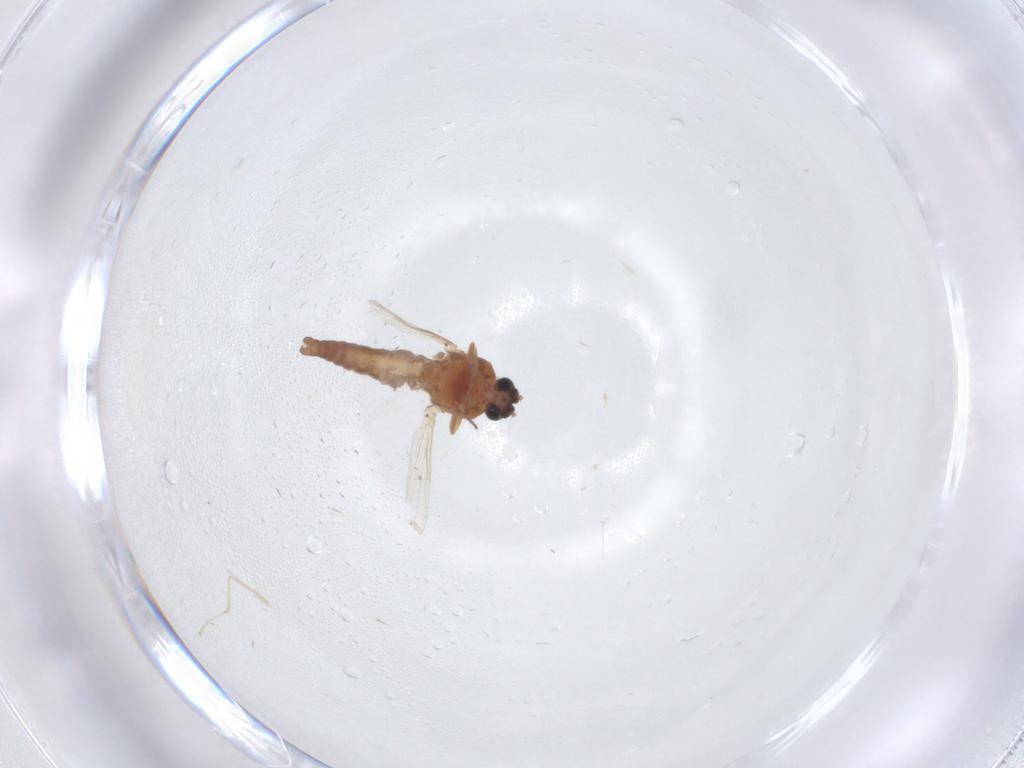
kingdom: Animalia
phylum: Arthropoda
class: Insecta
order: Diptera
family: Ceratopogonidae
